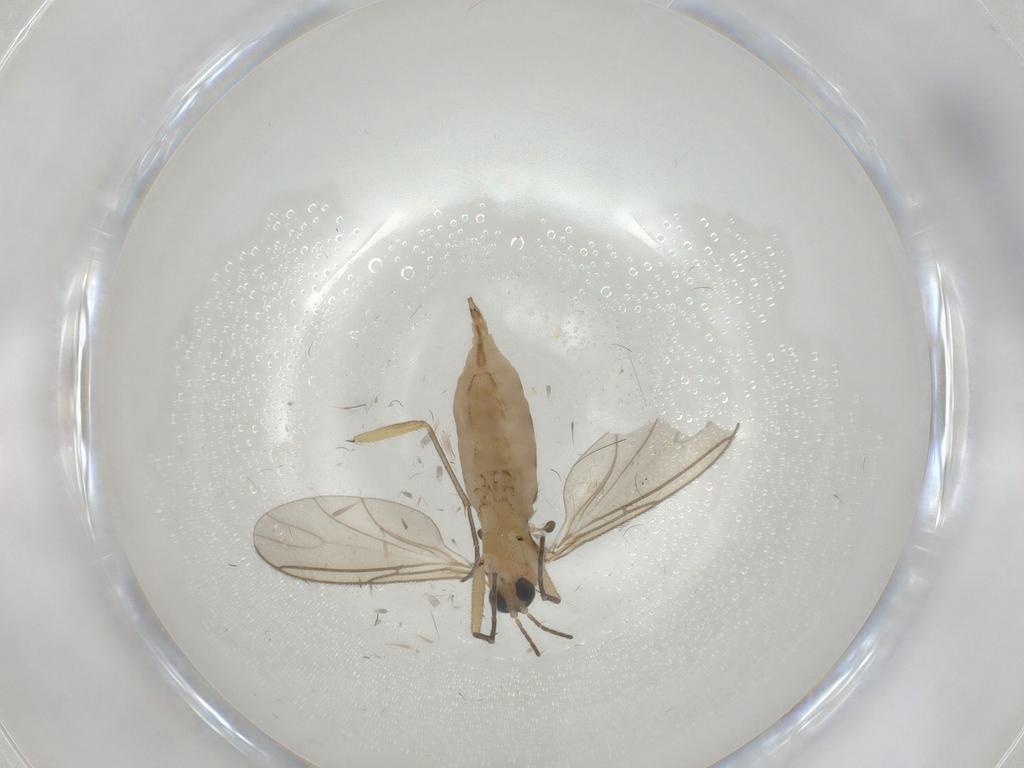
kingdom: Animalia
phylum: Arthropoda
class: Insecta
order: Diptera
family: Sciaridae
